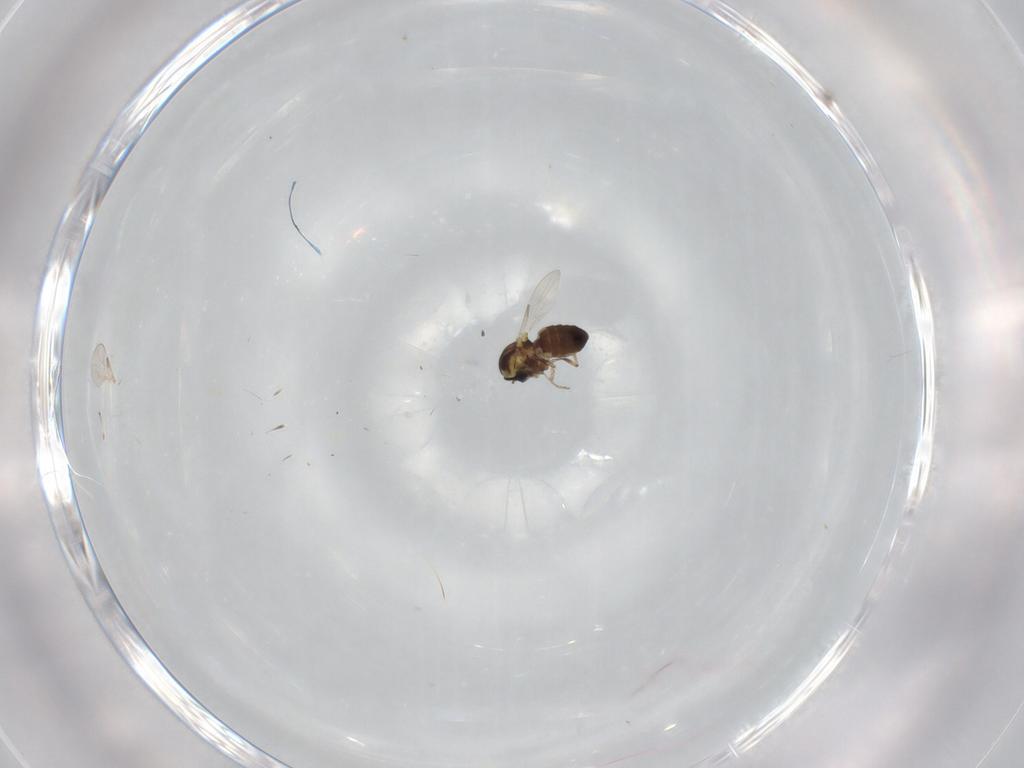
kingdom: Animalia
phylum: Arthropoda
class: Insecta
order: Diptera
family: Ceratopogonidae
